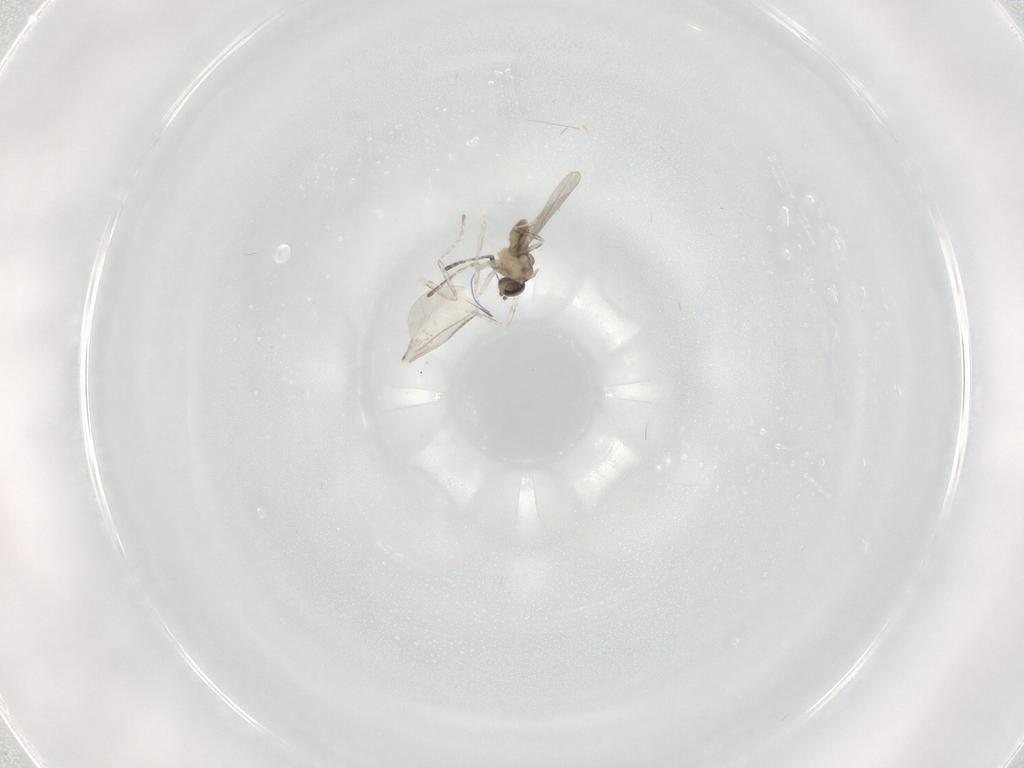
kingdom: Animalia
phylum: Arthropoda
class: Insecta
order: Diptera
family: Cecidomyiidae
